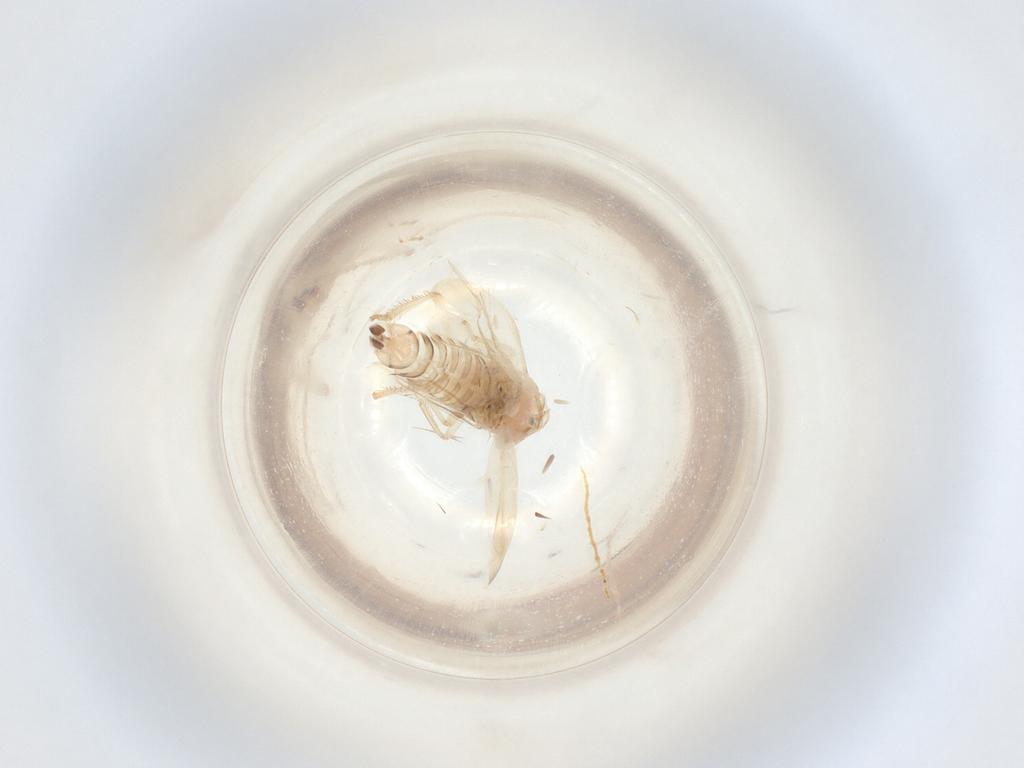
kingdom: Animalia
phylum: Arthropoda
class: Insecta
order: Hemiptera
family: Cicadellidae
